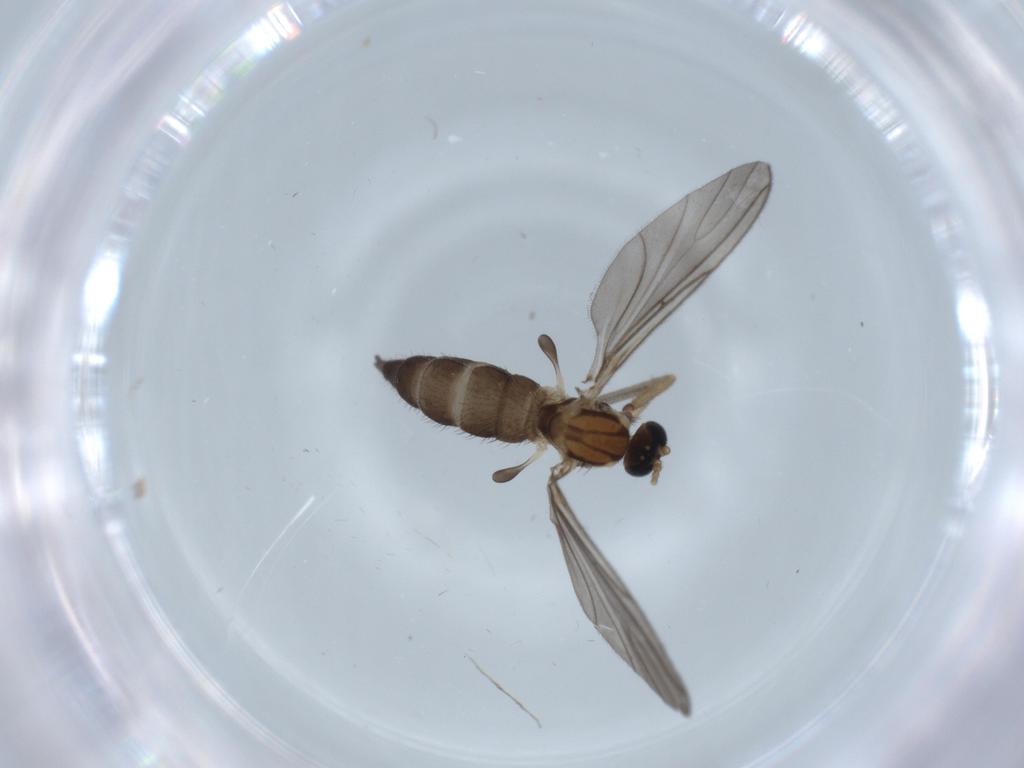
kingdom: Animalia
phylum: Arthropoda
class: Insecta
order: Diptera
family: Sciaridae
